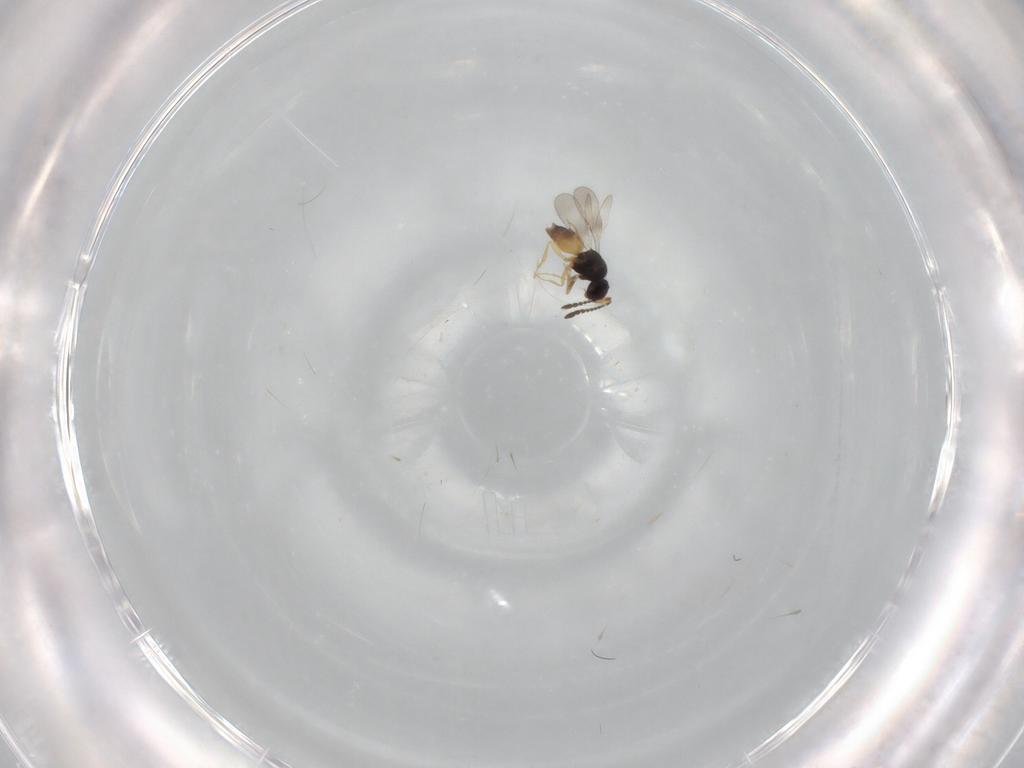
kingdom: Animalia
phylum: Arthropoda
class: Insecta
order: Hymenoptera
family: Ceraphronidae
